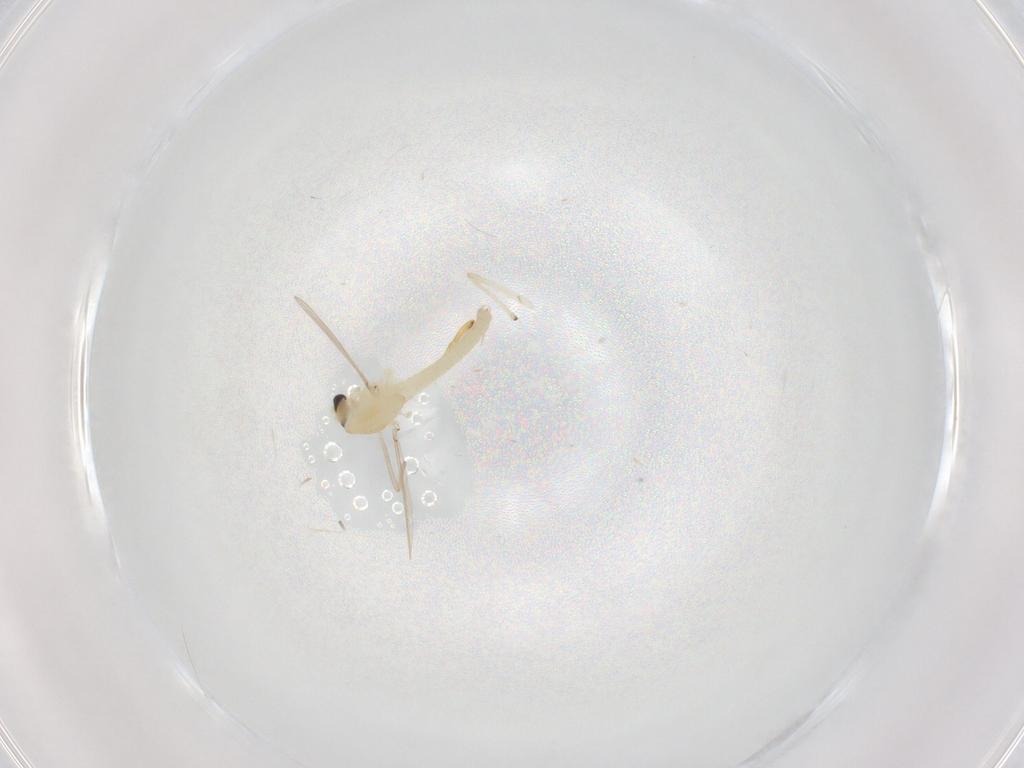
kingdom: Animalia
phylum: Arthropoda
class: Insecta
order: Diptera
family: Chironomidae
